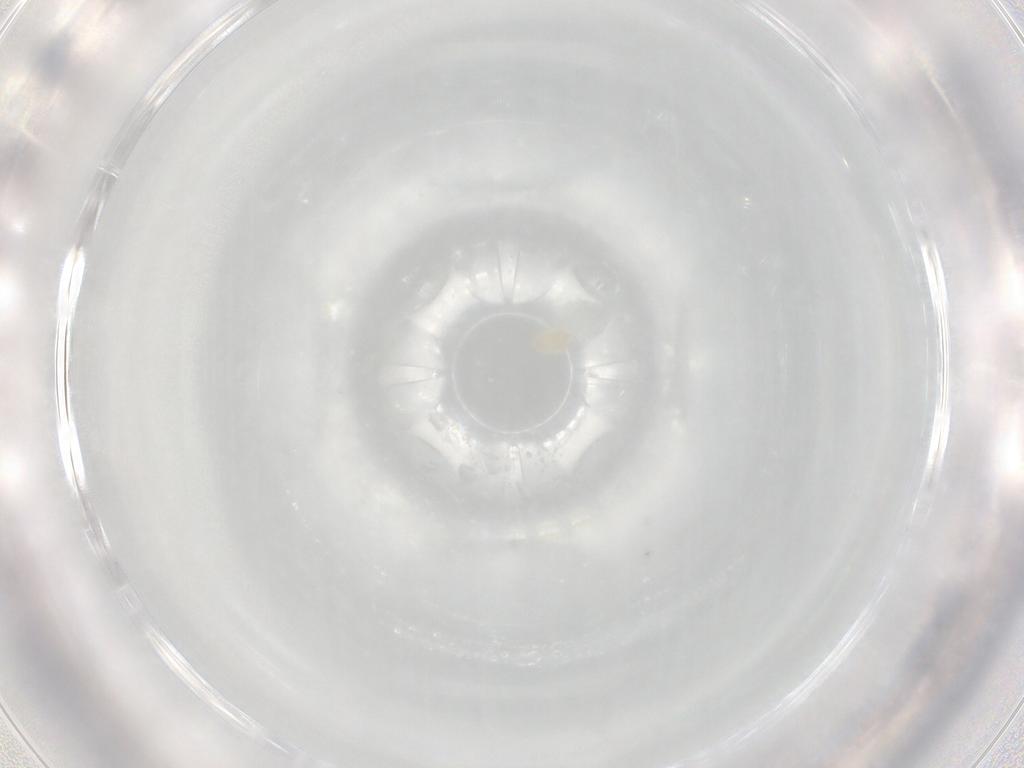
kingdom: Animalia
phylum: Arthropoda
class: Arachnida
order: Trombidiformes
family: Eupodidae
